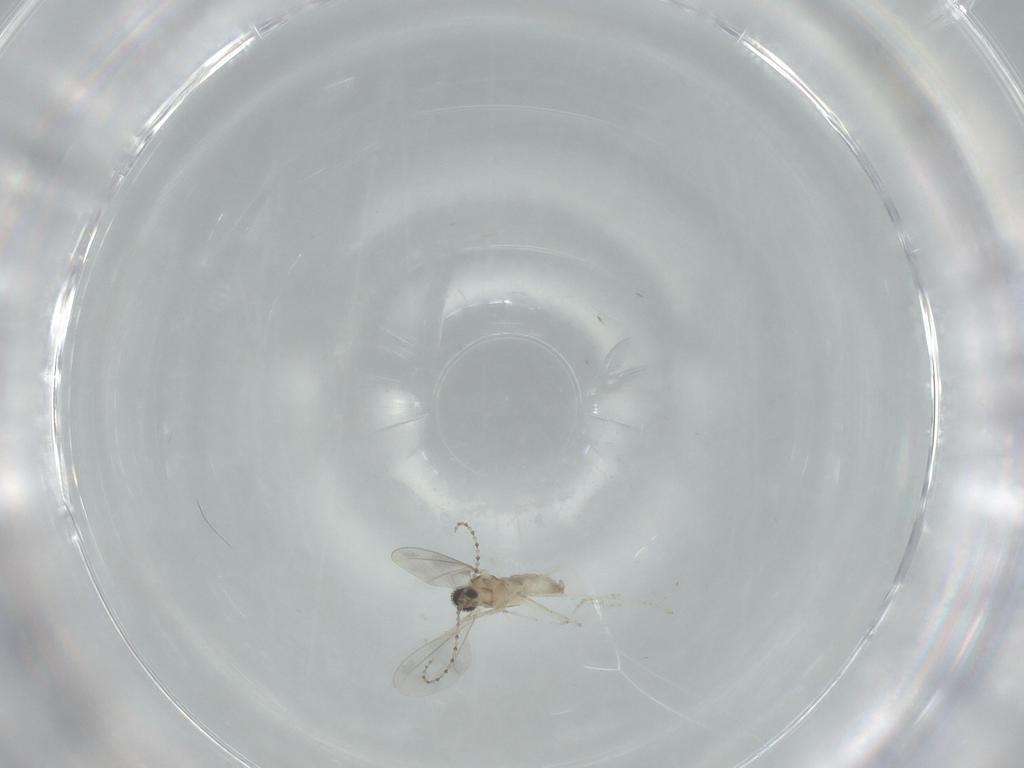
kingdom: Animalia
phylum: Arthropoda
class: Insecta
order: Diptera
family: Cecidomyiidae
